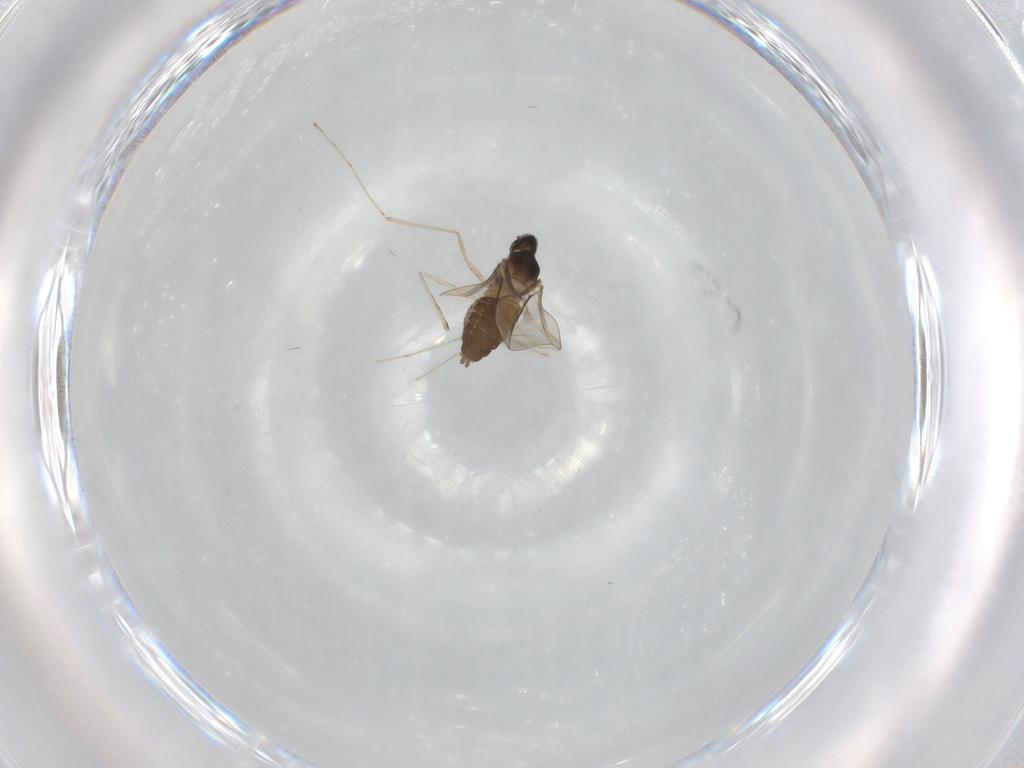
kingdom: Animalia
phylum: Arthropoda
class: Insecta
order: Diptera
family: Cecidomyiidae
